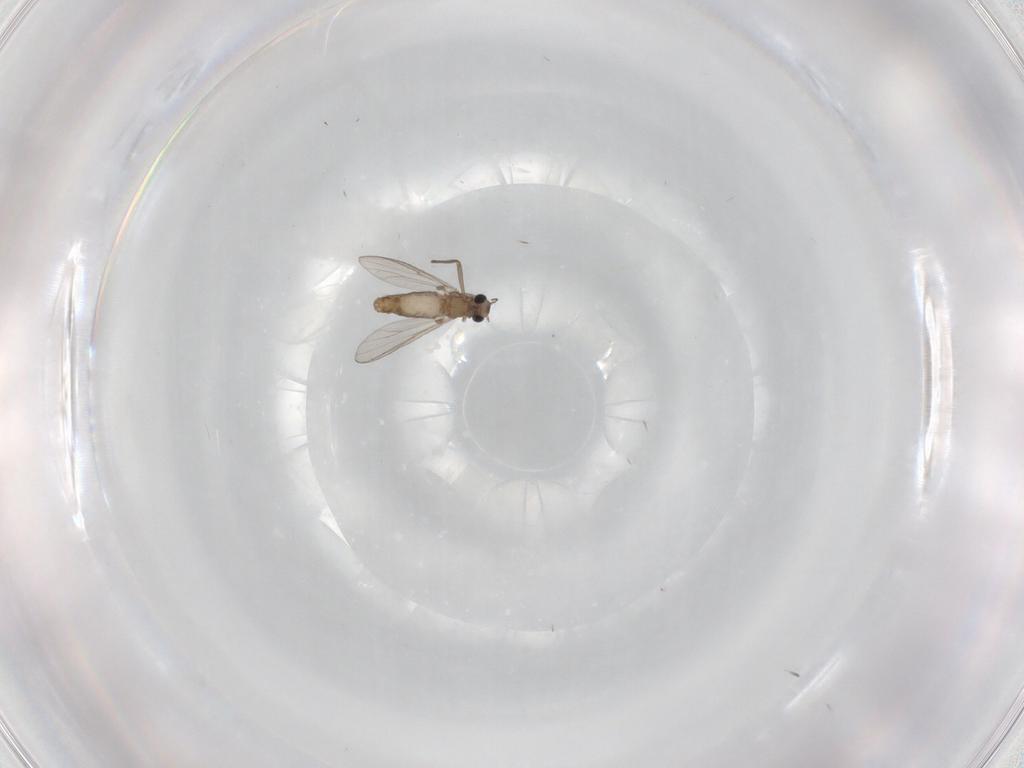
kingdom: Animalia
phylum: Arthropoda
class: Insecta
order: Diptera
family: Chironomidae
